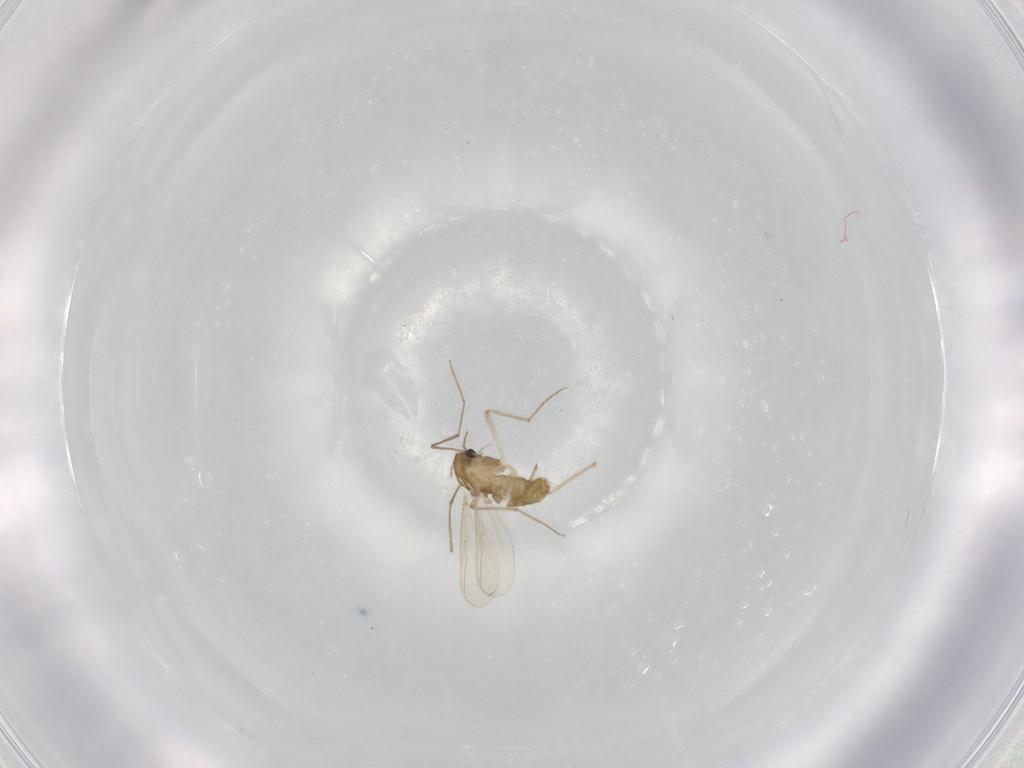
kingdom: Animalia
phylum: Arthropoda
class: Insecta
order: Diptera
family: Chironomidae
